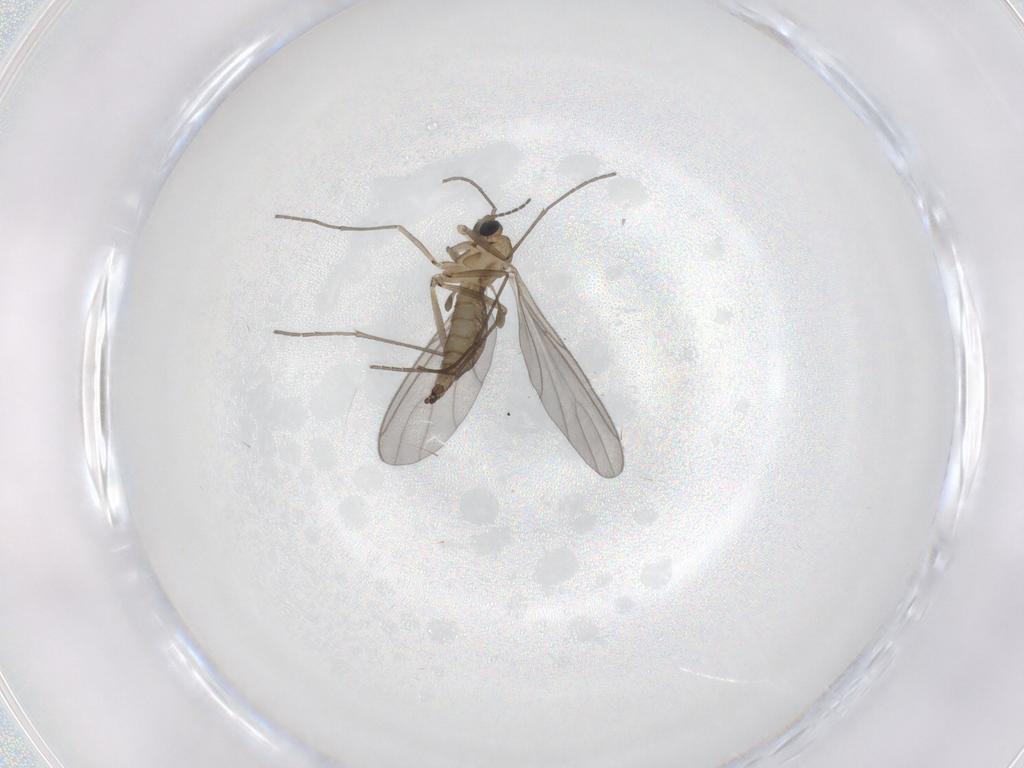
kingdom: Animalia
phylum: Arthropoda
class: Insecta
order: Diptera
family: Sciaridae
